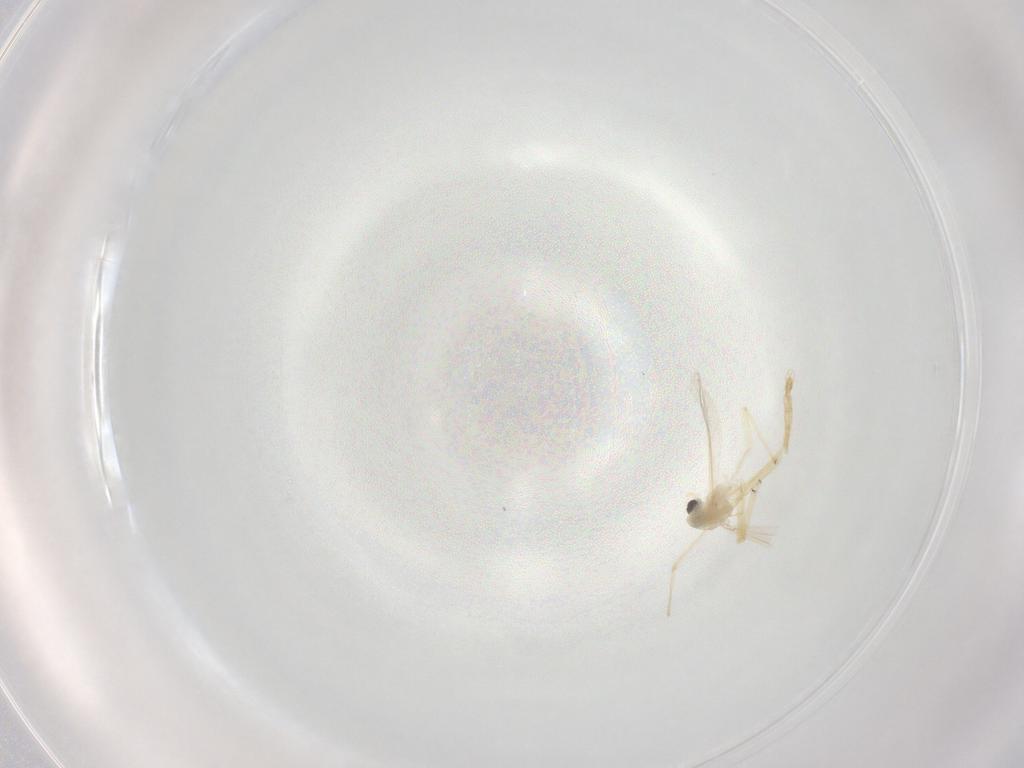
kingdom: Animalia
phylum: Arthropoda
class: Insecta
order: Diptera
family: Chironomidae
